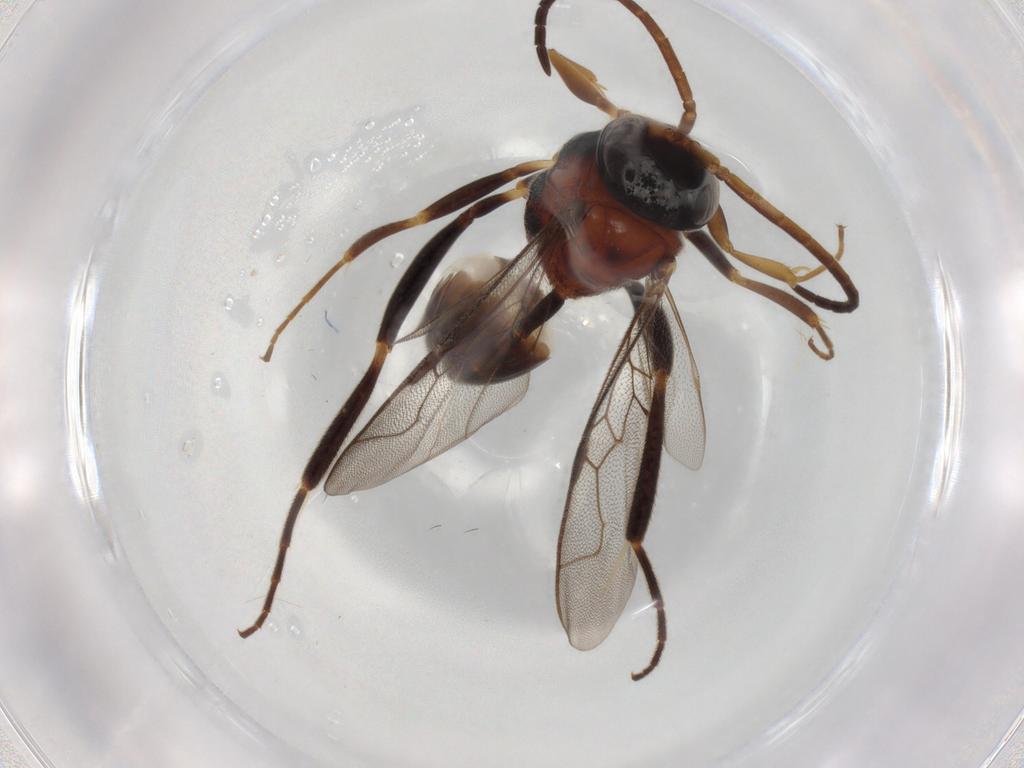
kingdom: Animalia
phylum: Arthropoda
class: Insecta
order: Hymenoptera
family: Evaniidae
